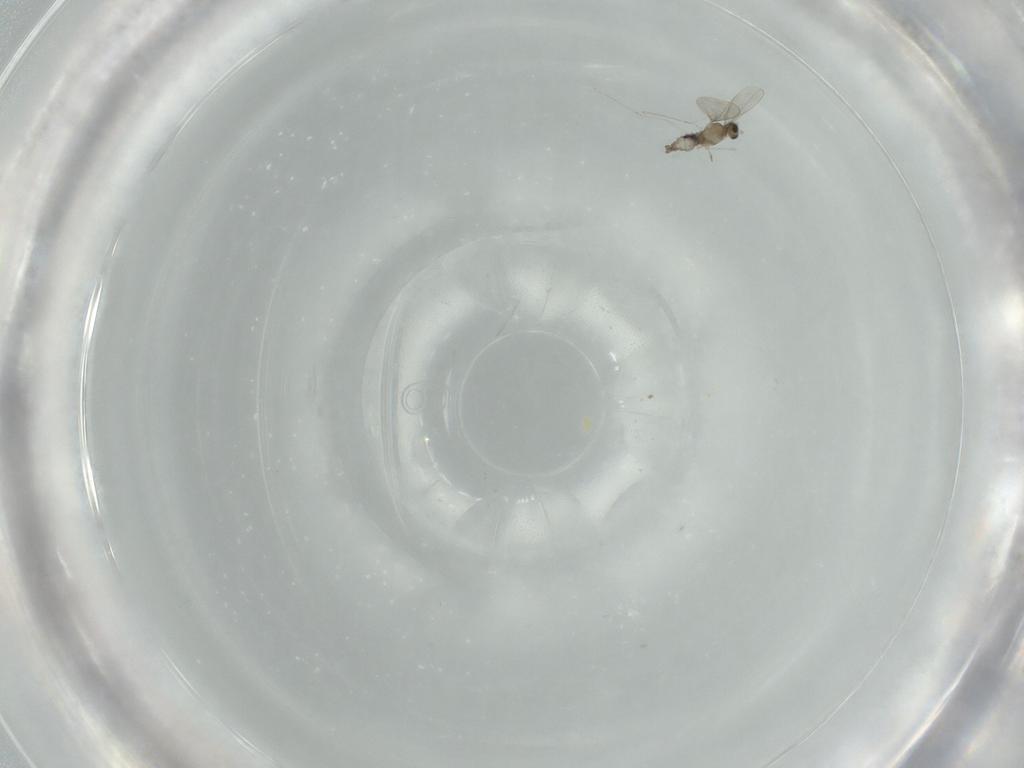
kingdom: Animalia
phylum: Arthropoda
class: Insecta
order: Diptera
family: Cecidomyiidae
